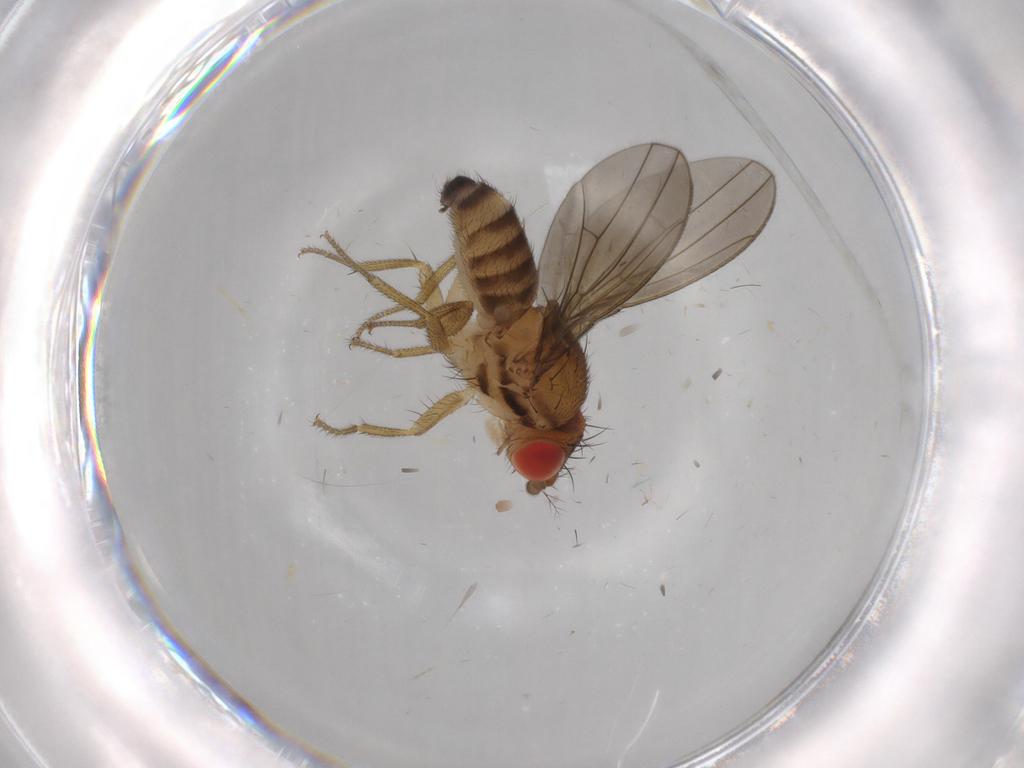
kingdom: Animalia
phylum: Arthropoda
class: Insecta
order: Diptera
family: Drosophilidae
